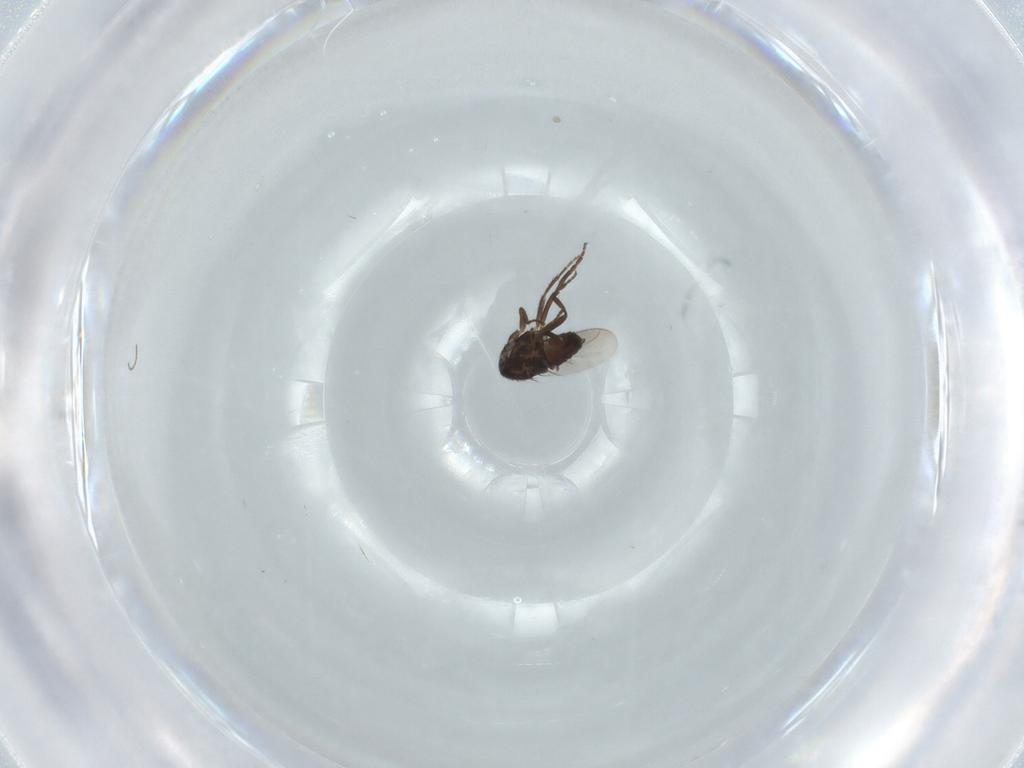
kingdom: Animalia
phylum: Arthropoda
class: Insecta
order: Diptera
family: Sphaeroceridae
